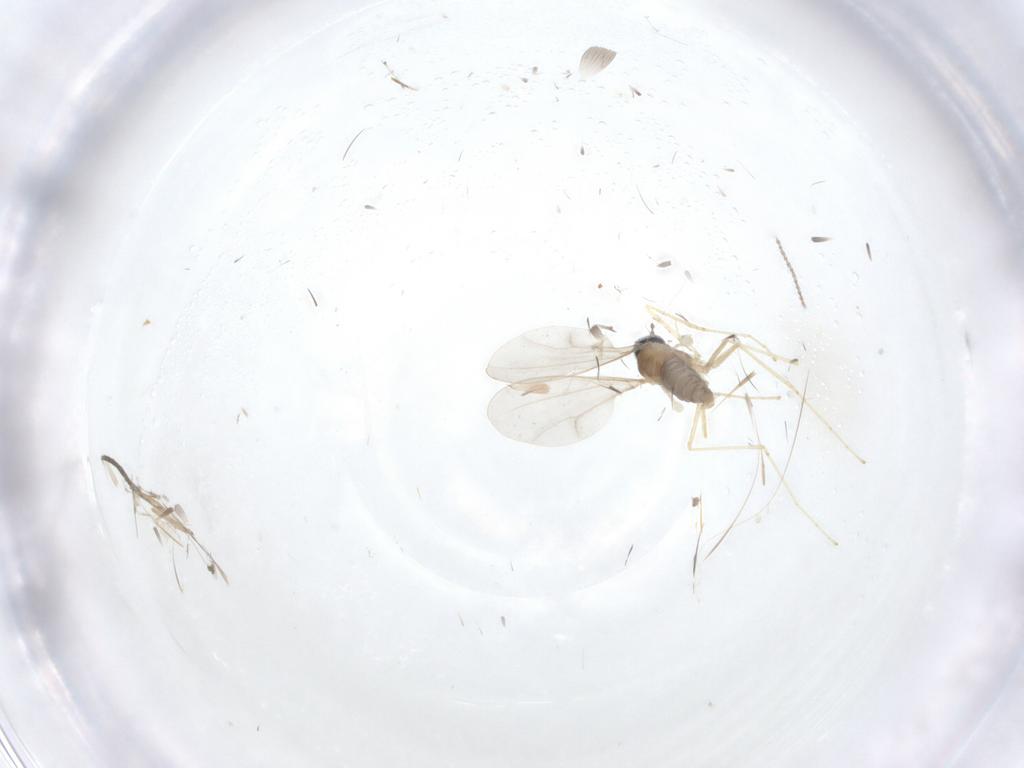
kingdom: Animalia
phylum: Arthropoda
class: Insecta
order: Diptera
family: Cecidomyiidae
